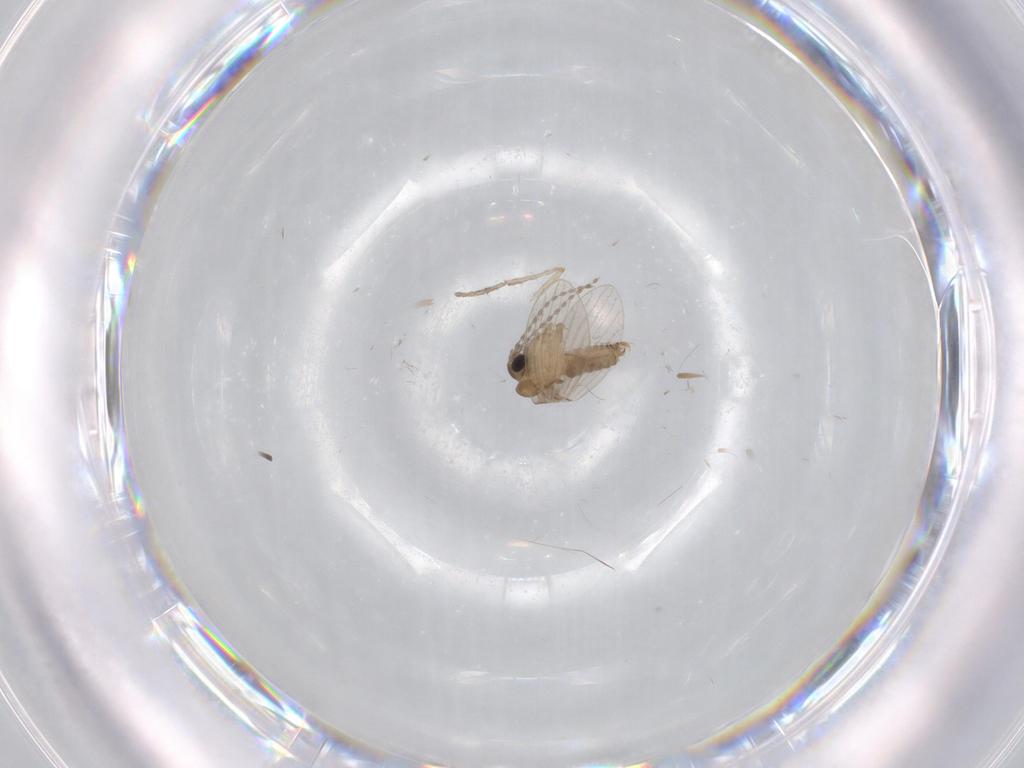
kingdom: Animalia
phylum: Arthropoda
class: Insecta
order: Diptera
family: Psychodidae
